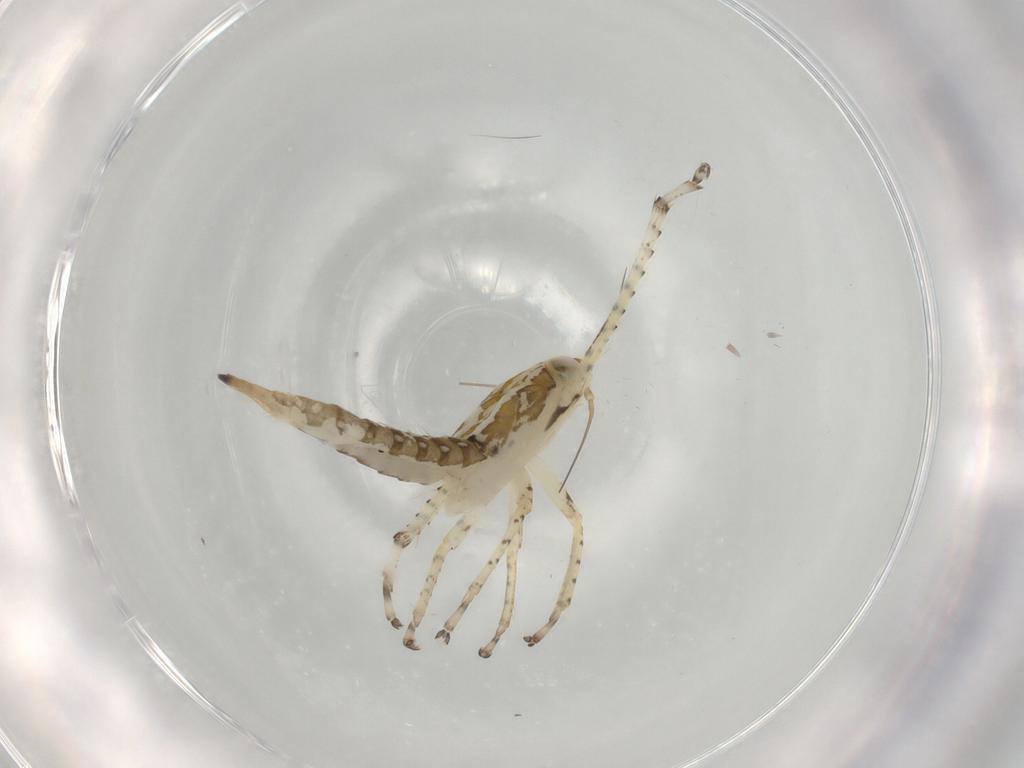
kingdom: Animalia
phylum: Arthropoda
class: Insecta
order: Hemiptera
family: Cicadellidae
